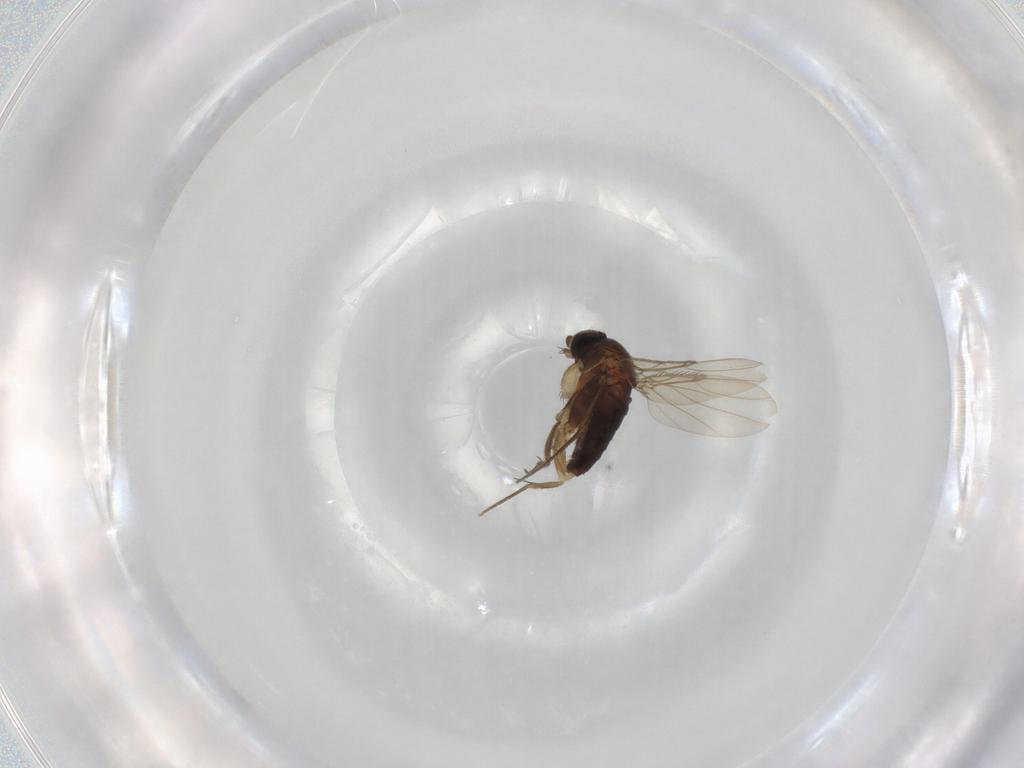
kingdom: Animalia
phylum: Arthropoda
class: Insecta
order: Diptera
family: Phoridae
